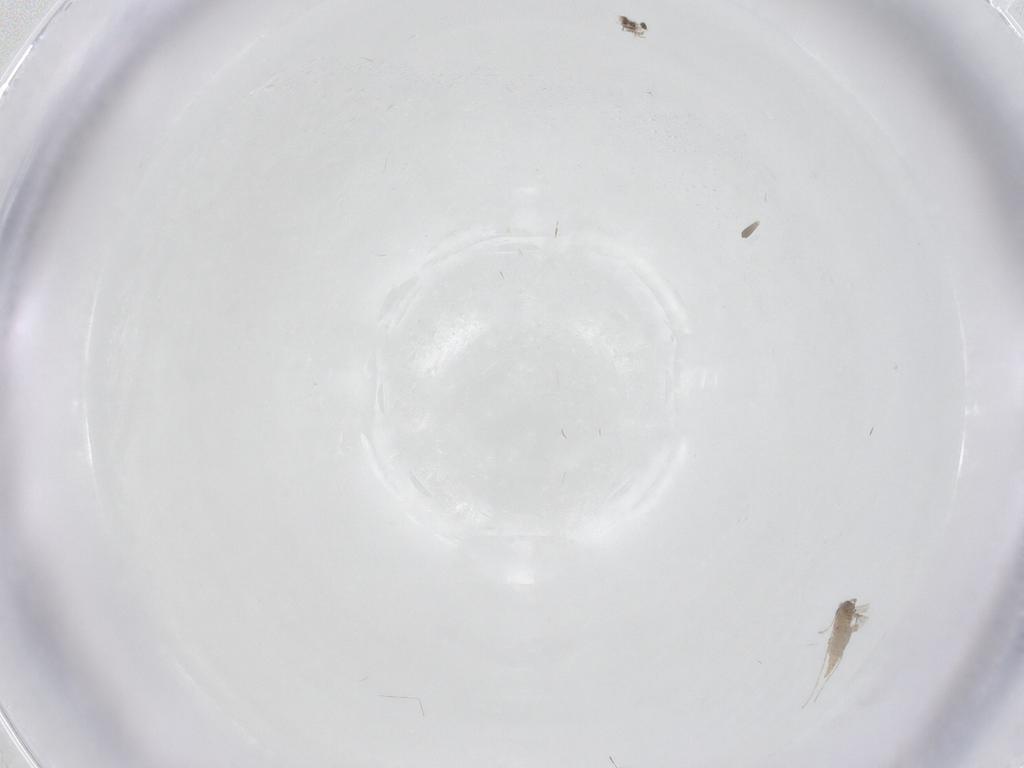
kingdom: Animalia
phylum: Arthropoda
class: Insecta
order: Diptera
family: Sciaridae
